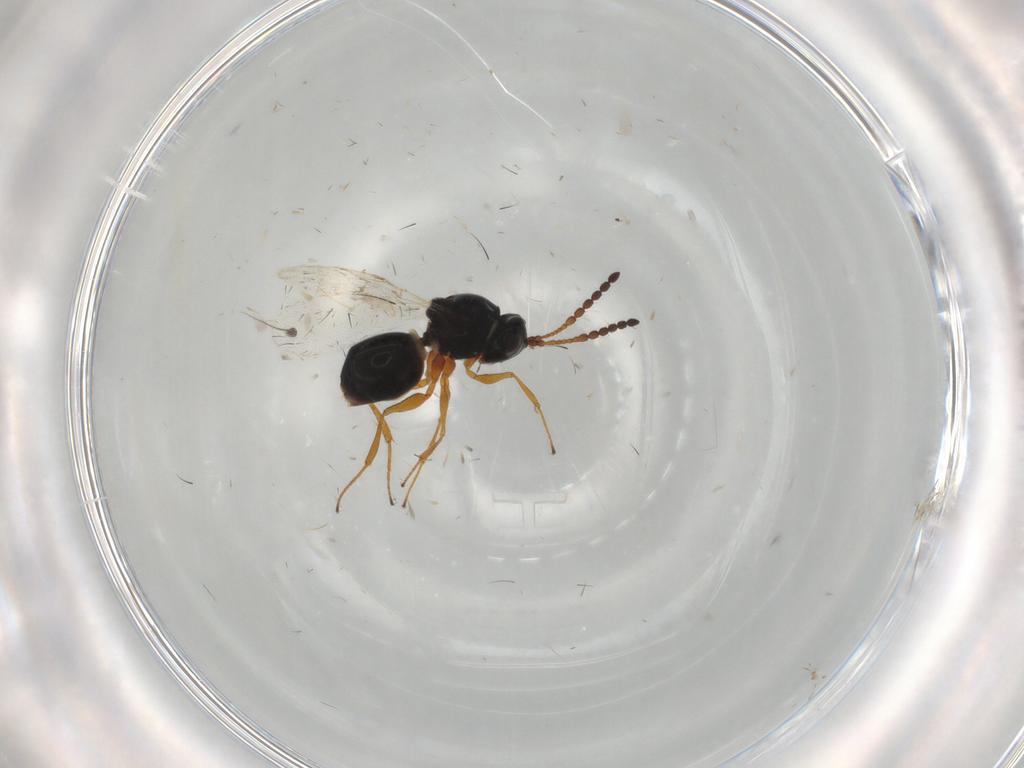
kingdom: Animalia
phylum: Arthropoda
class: Insecta
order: Hymenoptera
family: Figitidae
